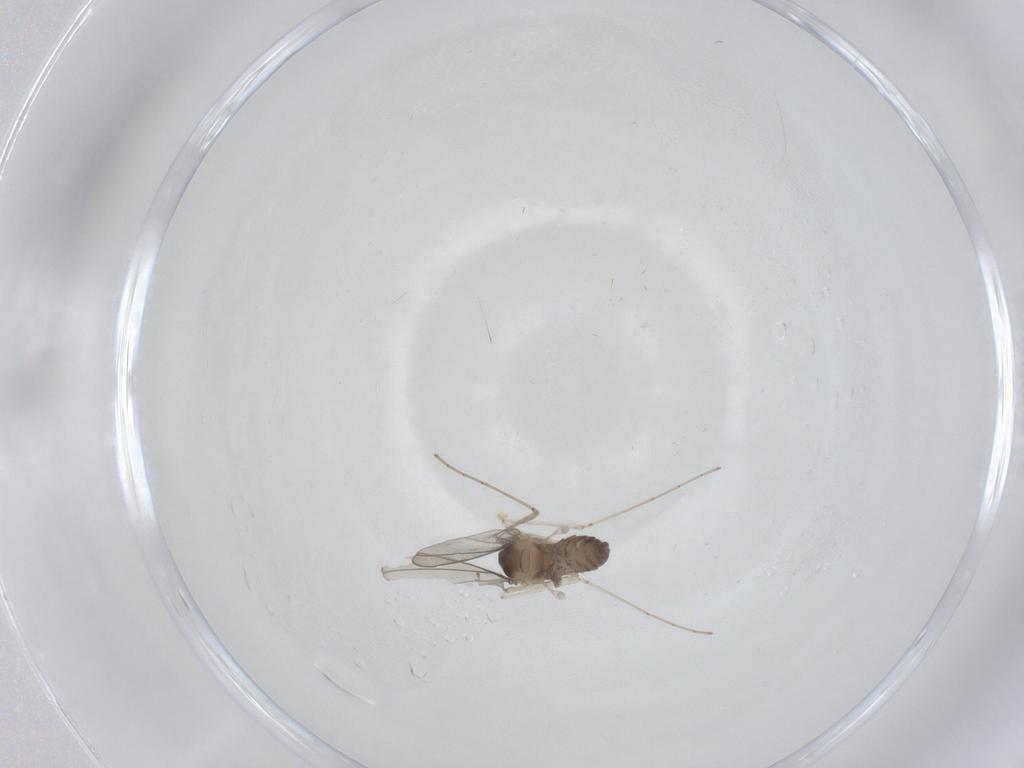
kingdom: Animalia
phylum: Arthropoda
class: Insecta
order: Diptera
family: Cecidomyiidae
